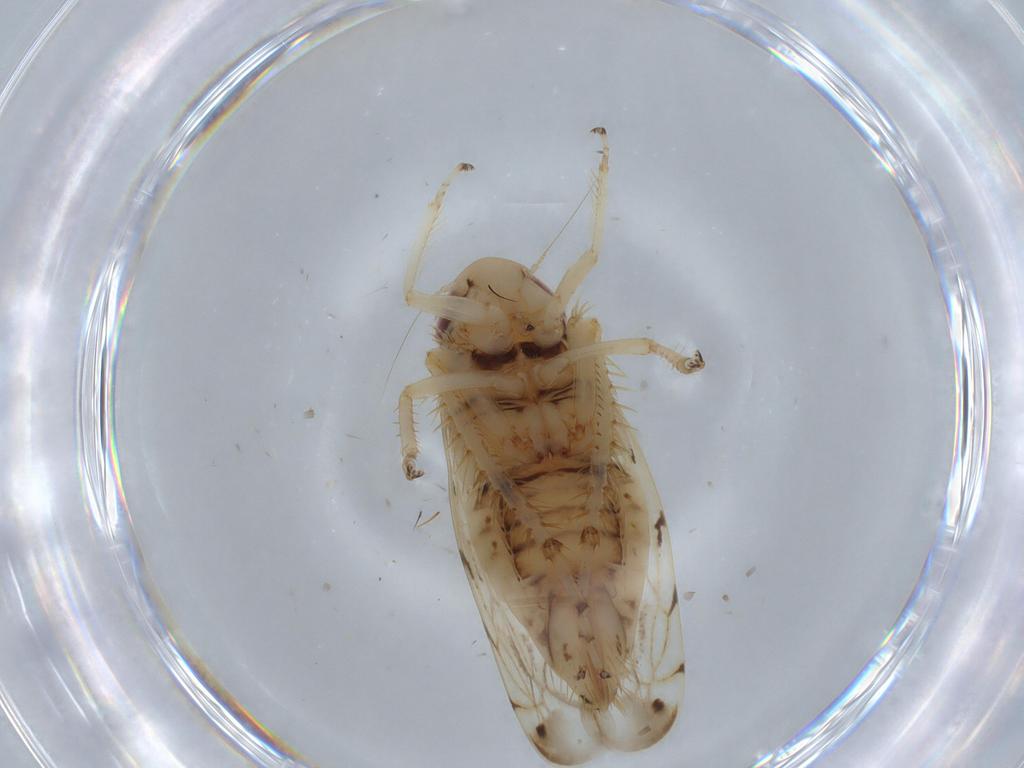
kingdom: Animalia
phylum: Arthropoda
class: Insecta
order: Hemiptera
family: Cicadellidae
